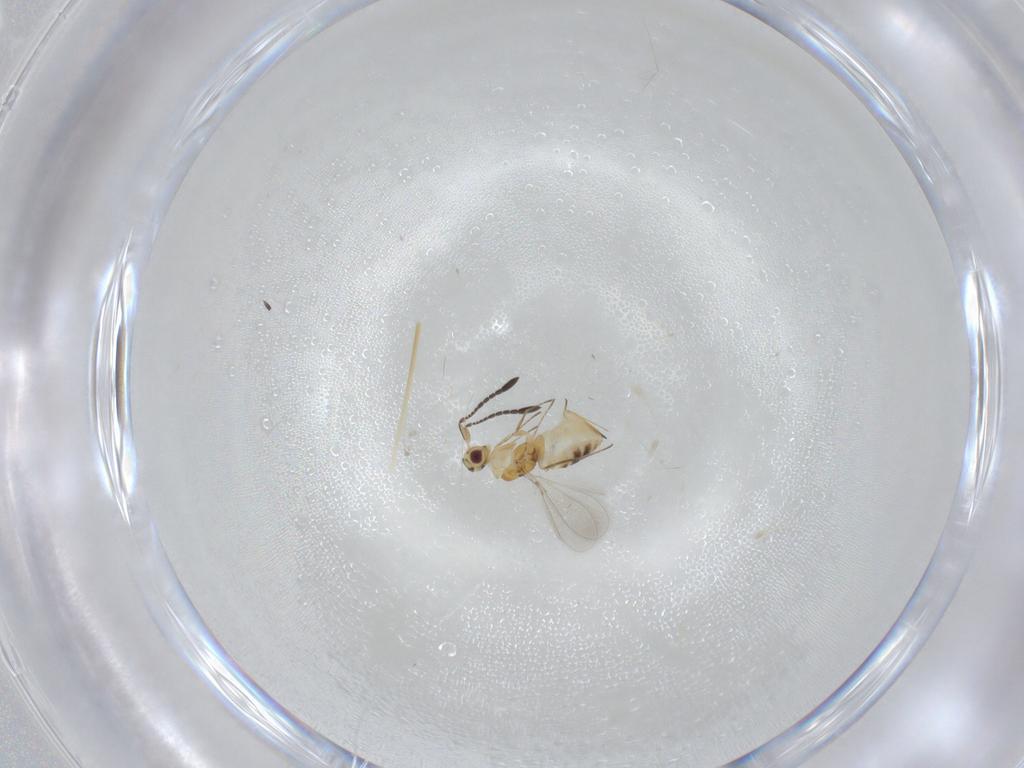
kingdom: Animalia
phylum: Arthropoda
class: Insecta
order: Hymenoptera
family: Mymaridae
